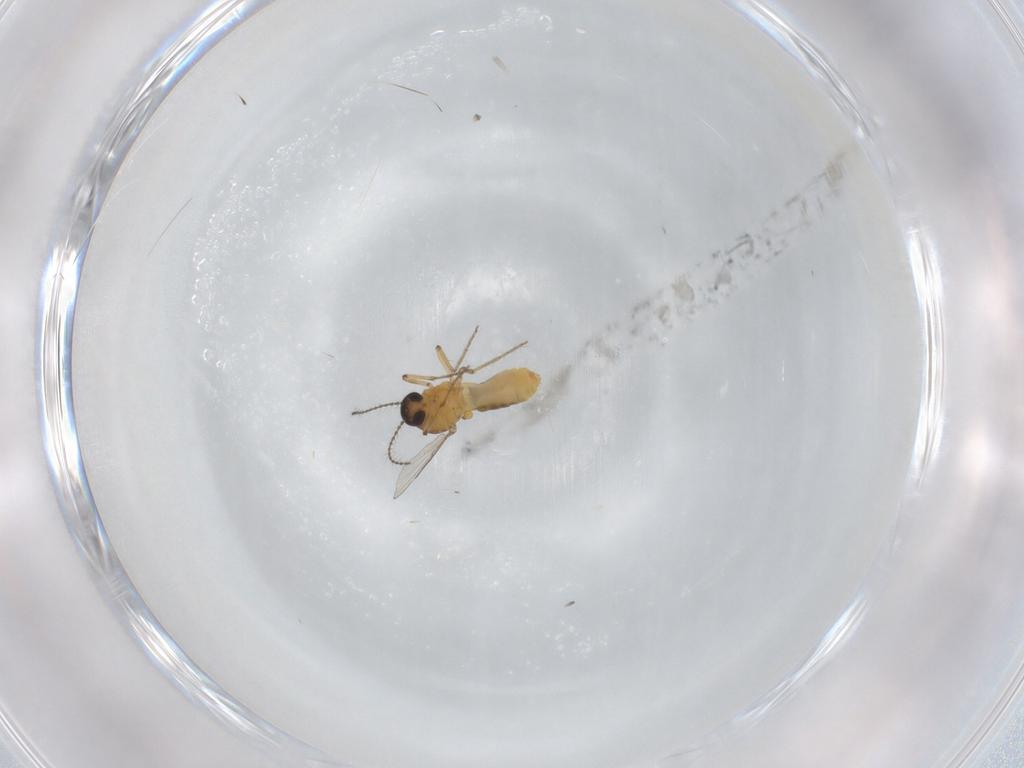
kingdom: Animalia
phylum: Arthropoda
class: Insecta
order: Diptera
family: Ceratopogonidae
